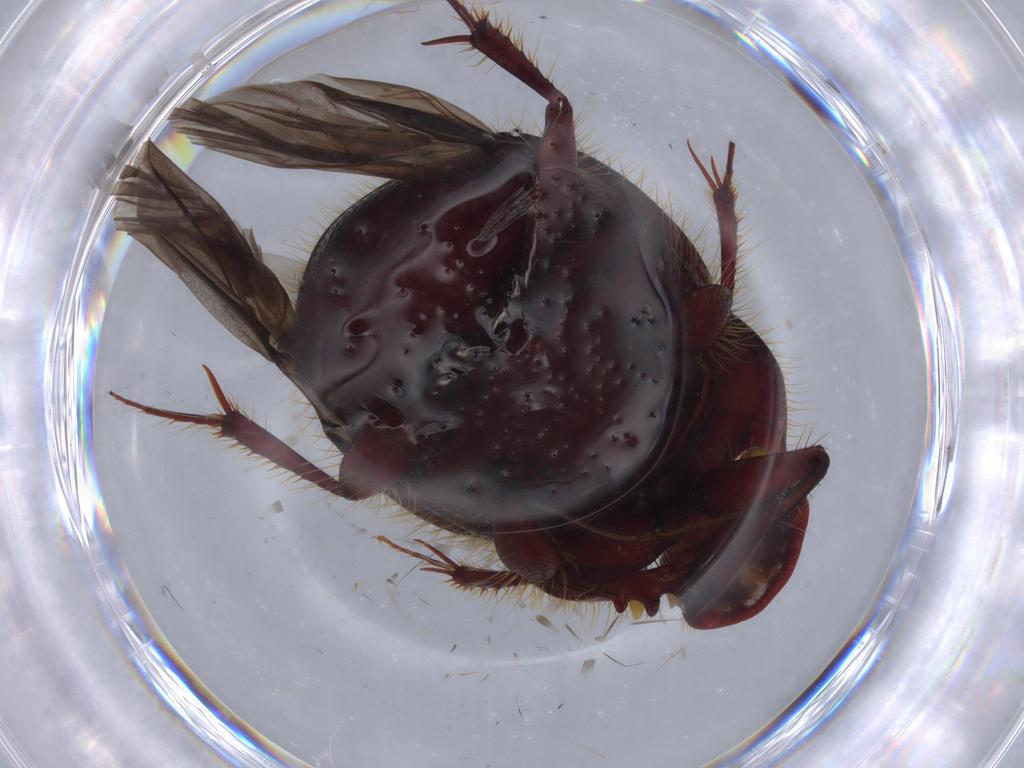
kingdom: Animalia
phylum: Arthropoda
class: Insecta
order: Coleoptera
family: Scarabaeidae
